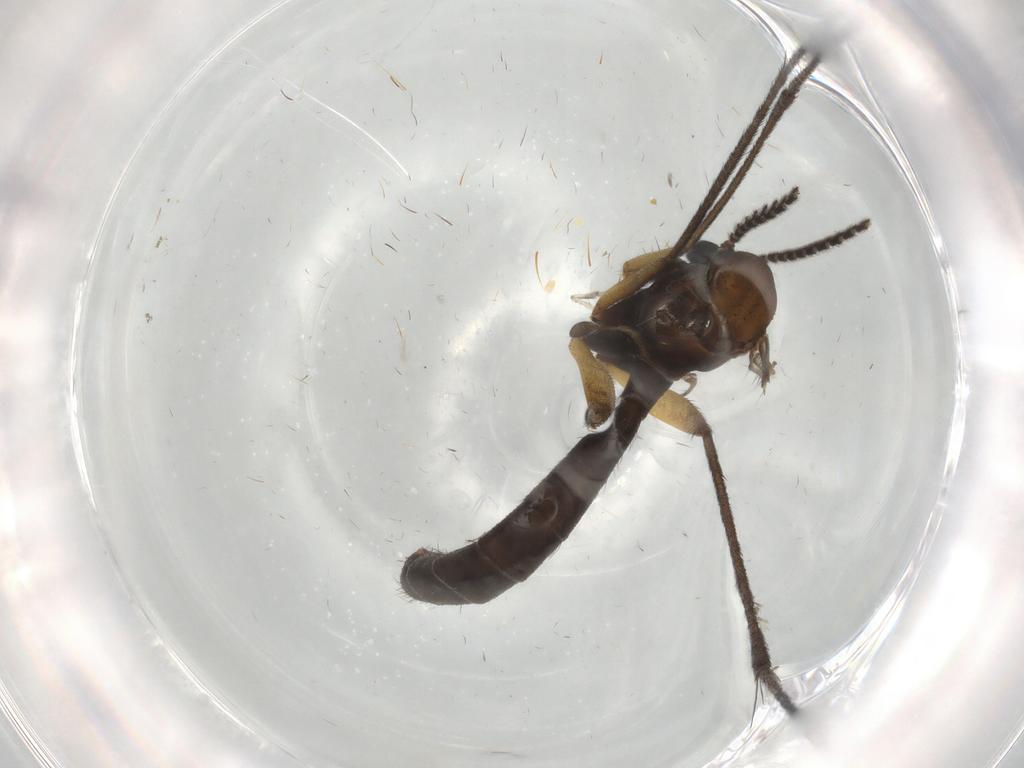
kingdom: Animalia
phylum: Arthropoda
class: Insecta
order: Diptera
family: Phoridae
